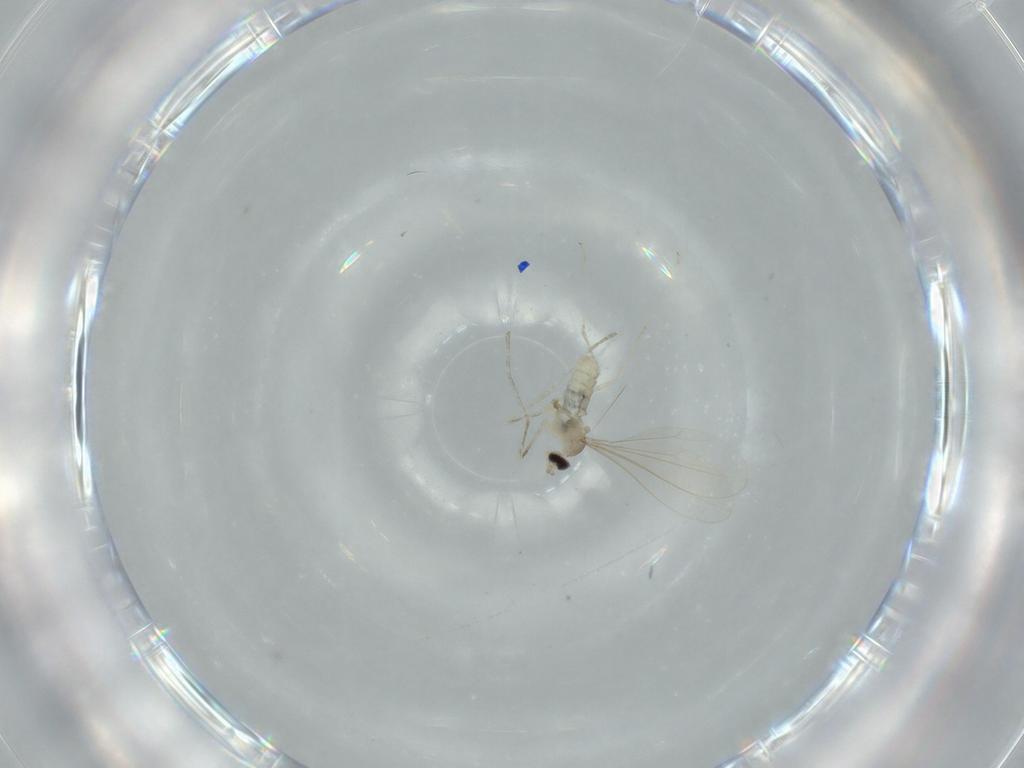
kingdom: Animalia
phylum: Arthropoda
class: Insecta
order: Diptera
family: Cecidomyiidae
